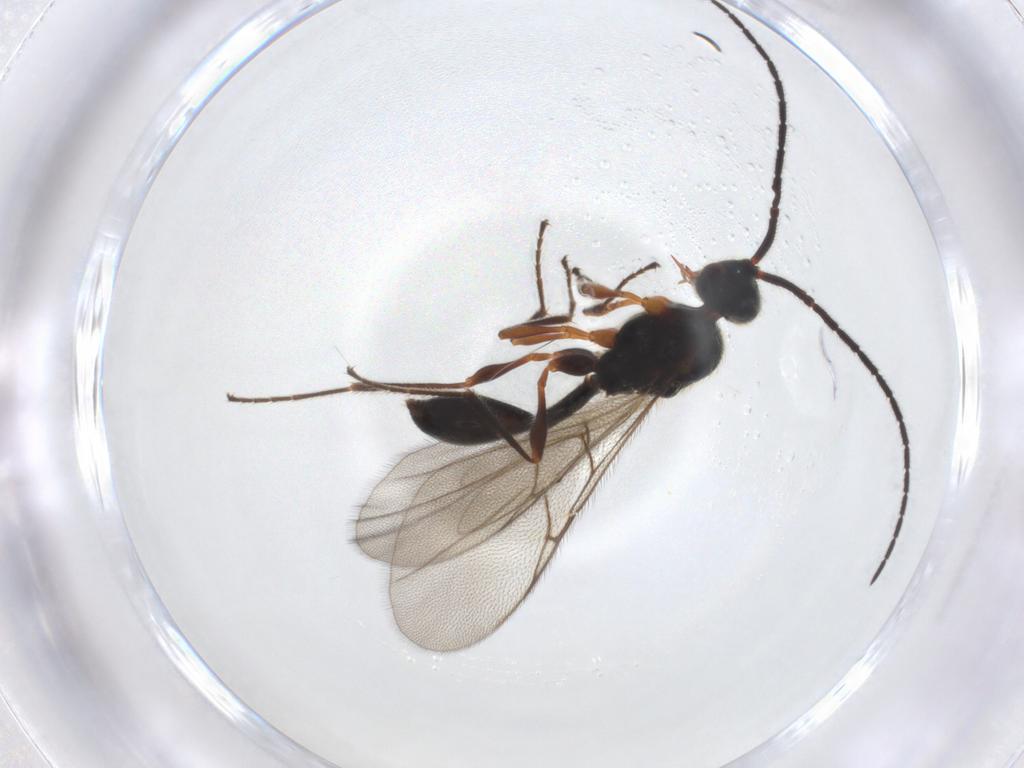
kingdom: Animalia
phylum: Arthropoda
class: Insecta
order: Hymenoptera
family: Diapriidae
